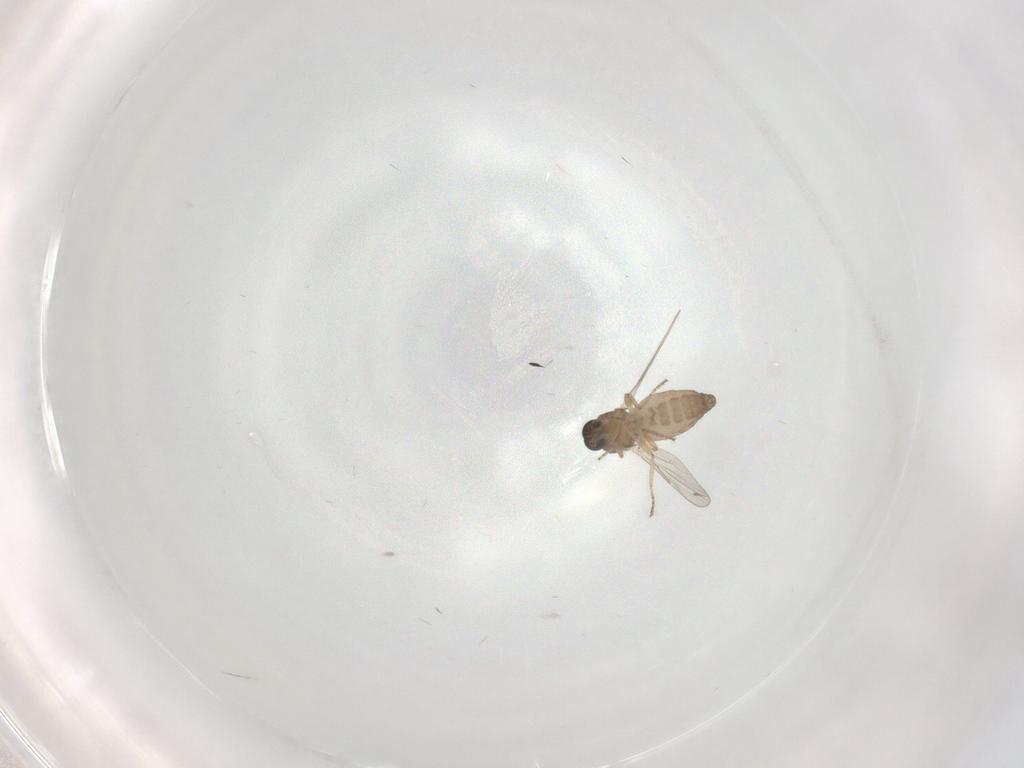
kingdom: Animalia
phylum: Arthropoda
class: Insecta
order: Diptera
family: Ceratopogonidae
